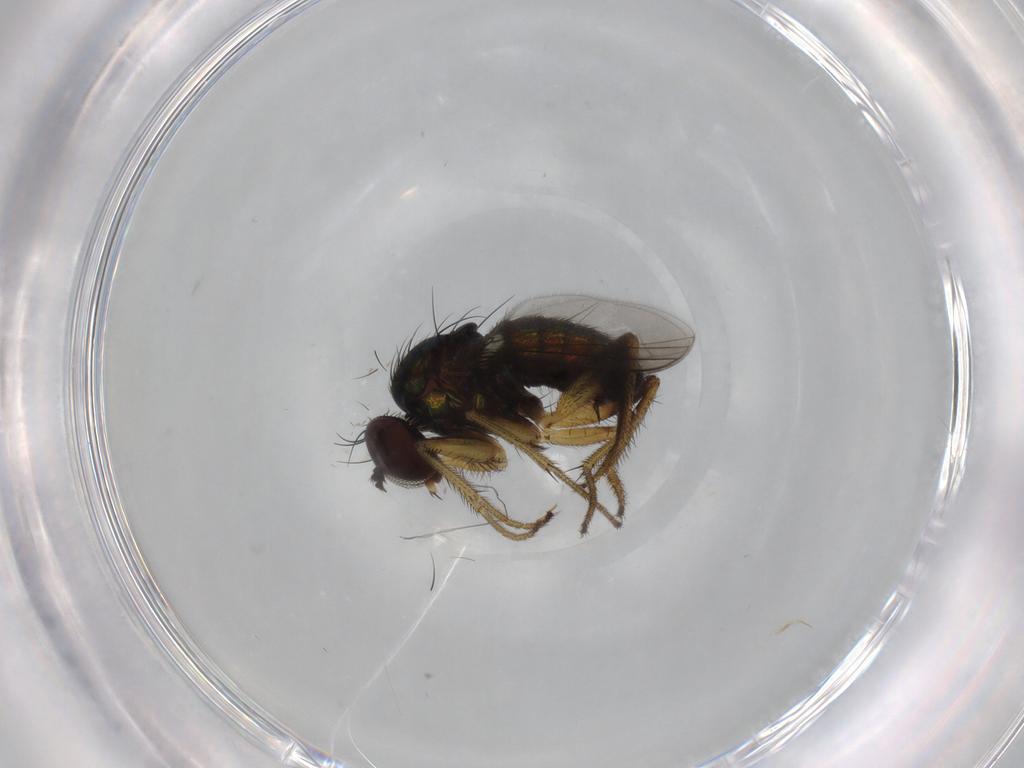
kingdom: Animalia
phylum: Arthropoda
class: Insecta
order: Diptera
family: Dolichopodidae
